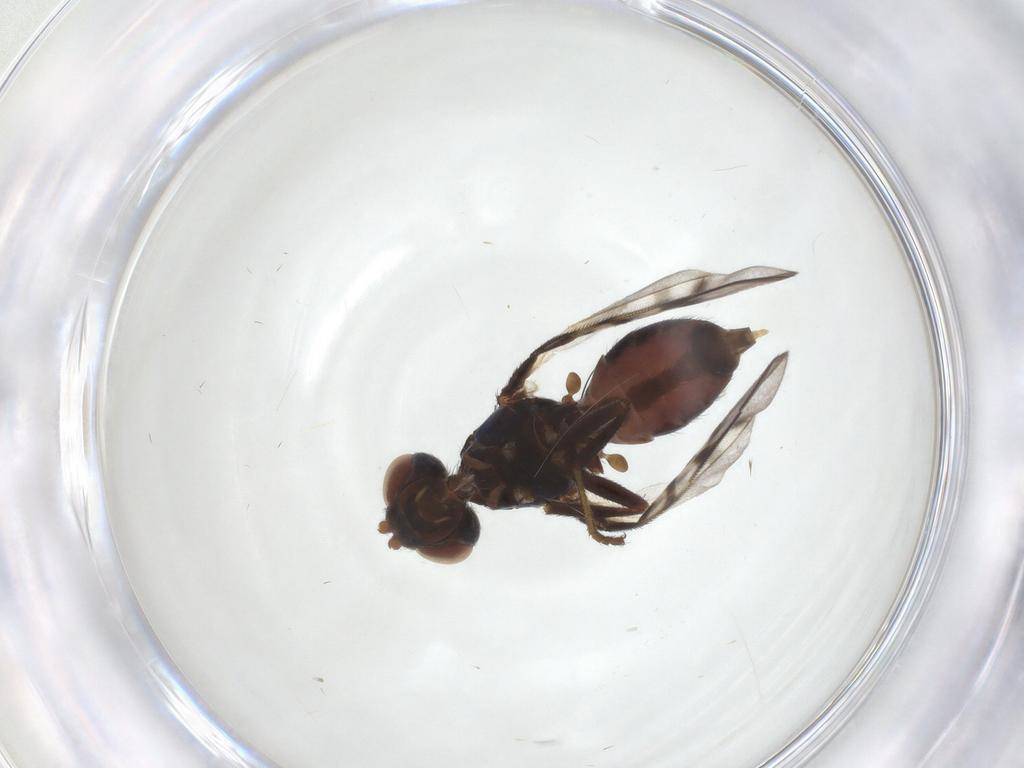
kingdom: Animalia
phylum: Arthropoda
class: Insecta
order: Diptera
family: Platystomatidae
